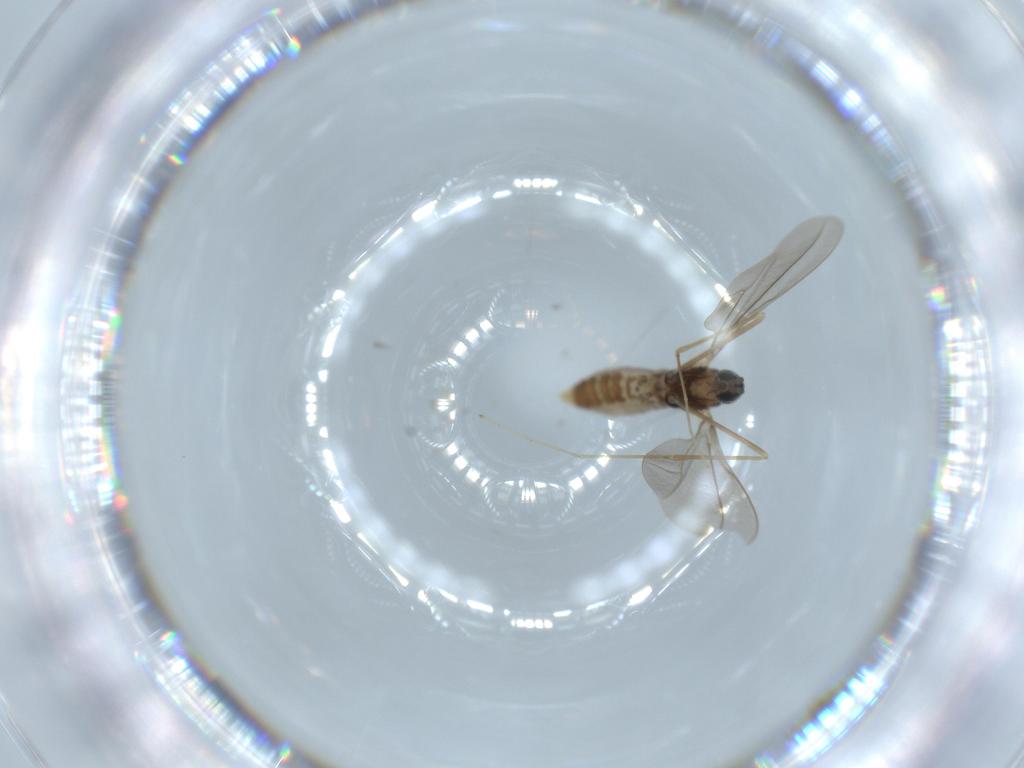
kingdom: Animalia
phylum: Arthropoda
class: Insecta
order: Diptera
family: Cecidomyiidae
